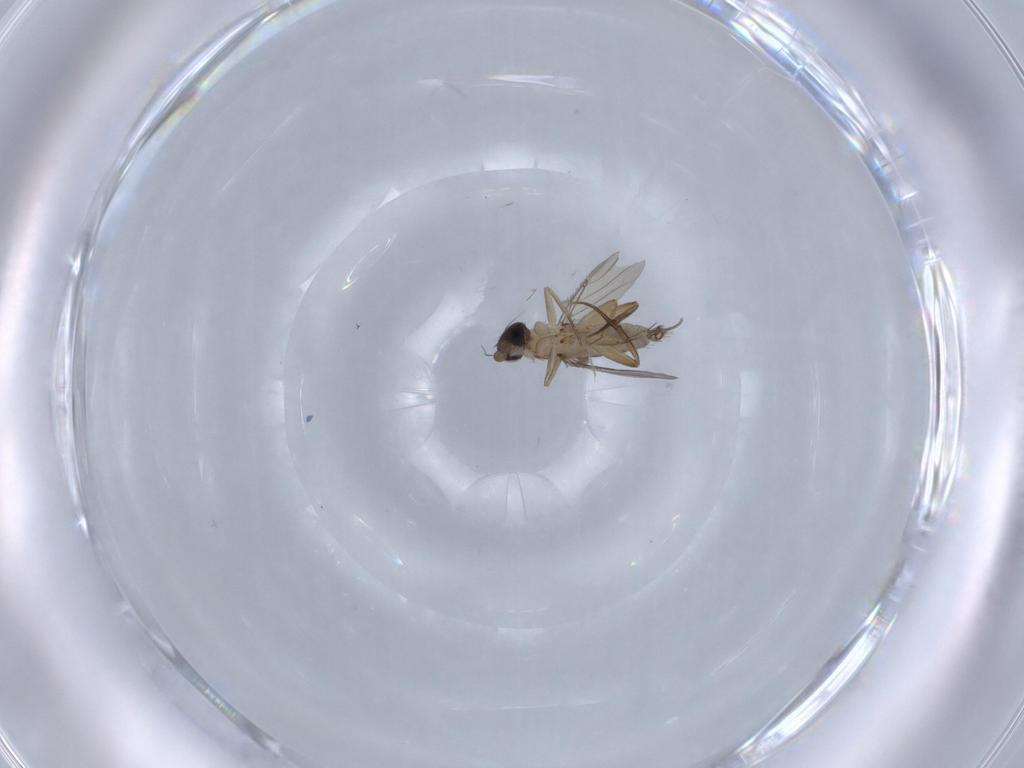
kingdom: Animalia
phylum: Arthropoda
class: Insecta
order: Diptera
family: Phoridae
